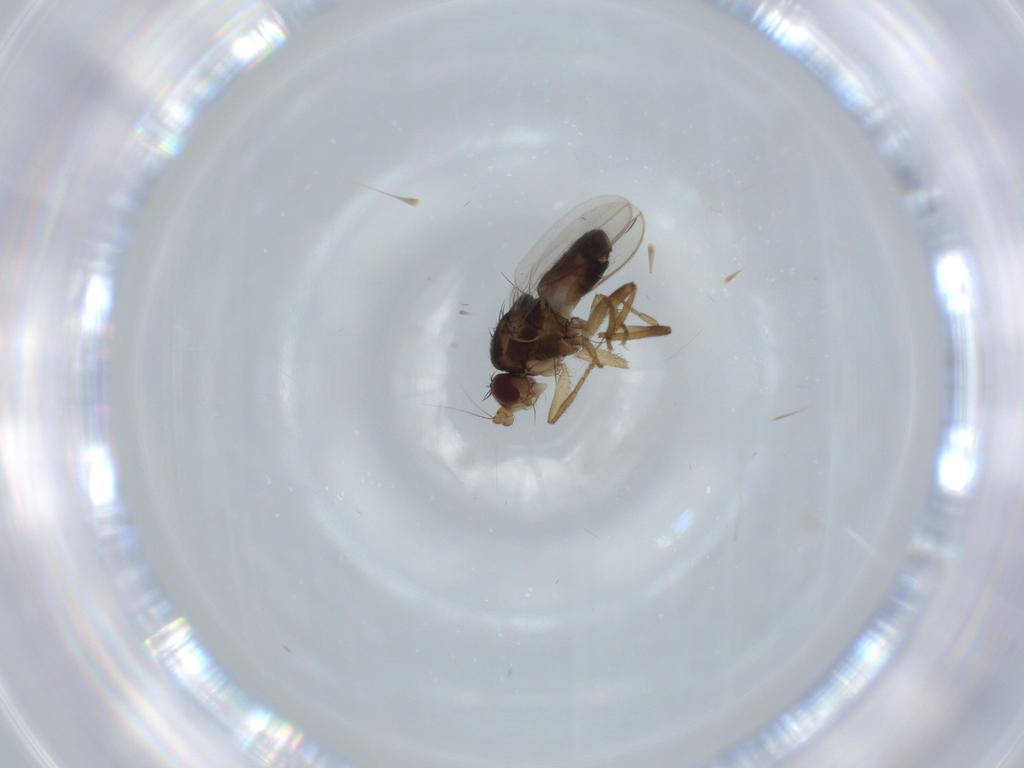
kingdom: Animalia
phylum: Arthropoda
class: Insecta
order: Diptera
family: Sphaeroceridae
